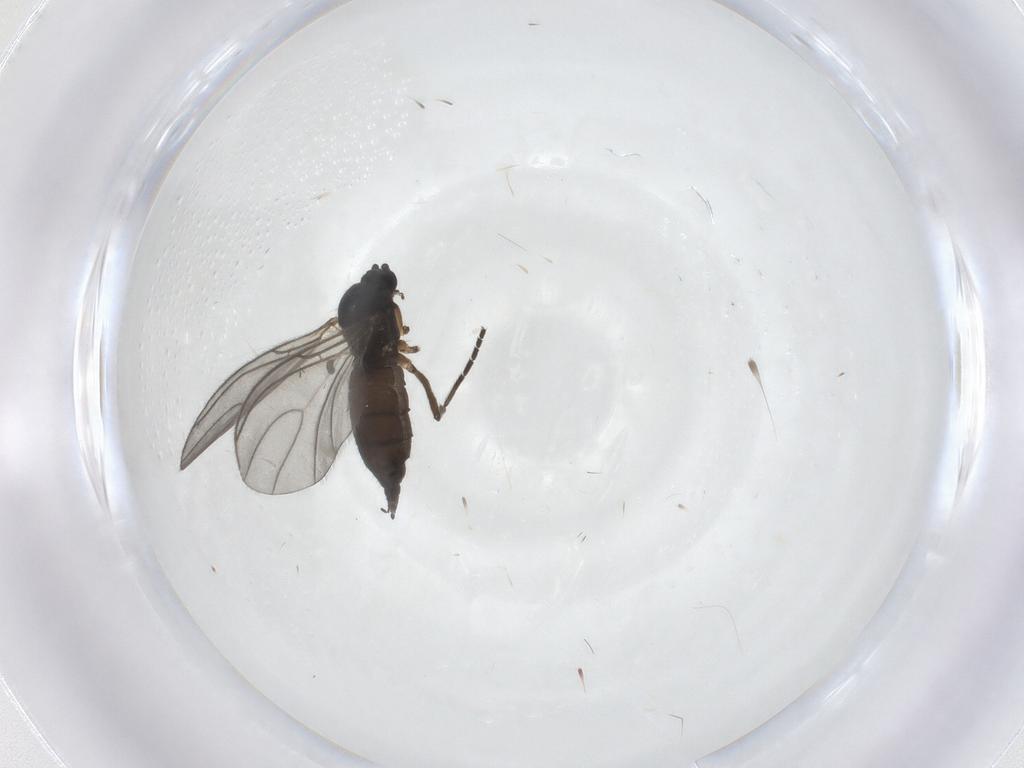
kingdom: Animalia
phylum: Arthropoda
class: Insecta
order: Diptera
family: Sciaridae
